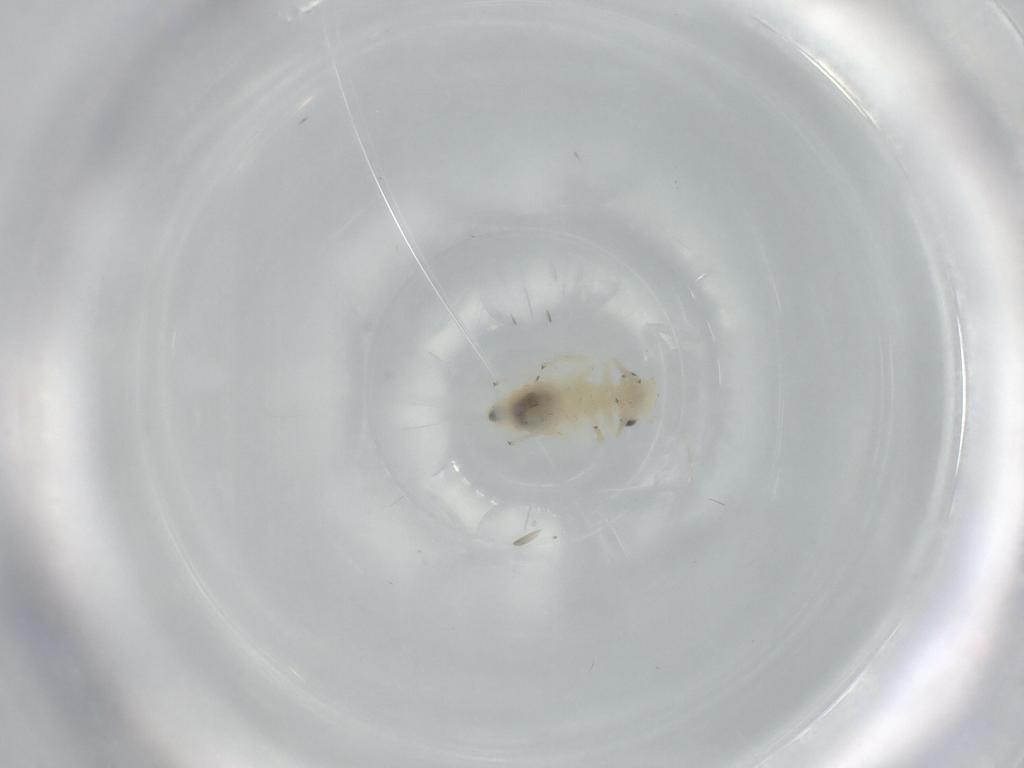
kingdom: Animalia
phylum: Arthropoda
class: Insecta
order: Psocodea
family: Caeciliusidae
